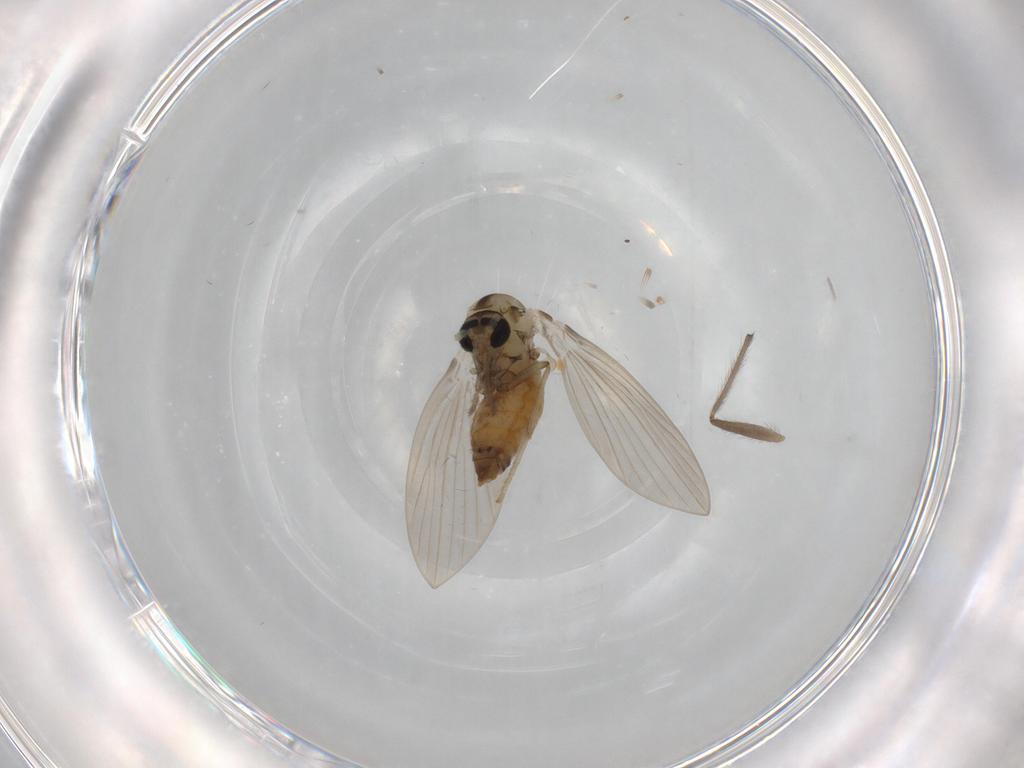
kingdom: Animalia
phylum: Arthropoda
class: Insecta
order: Diptera
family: Psychodidae
